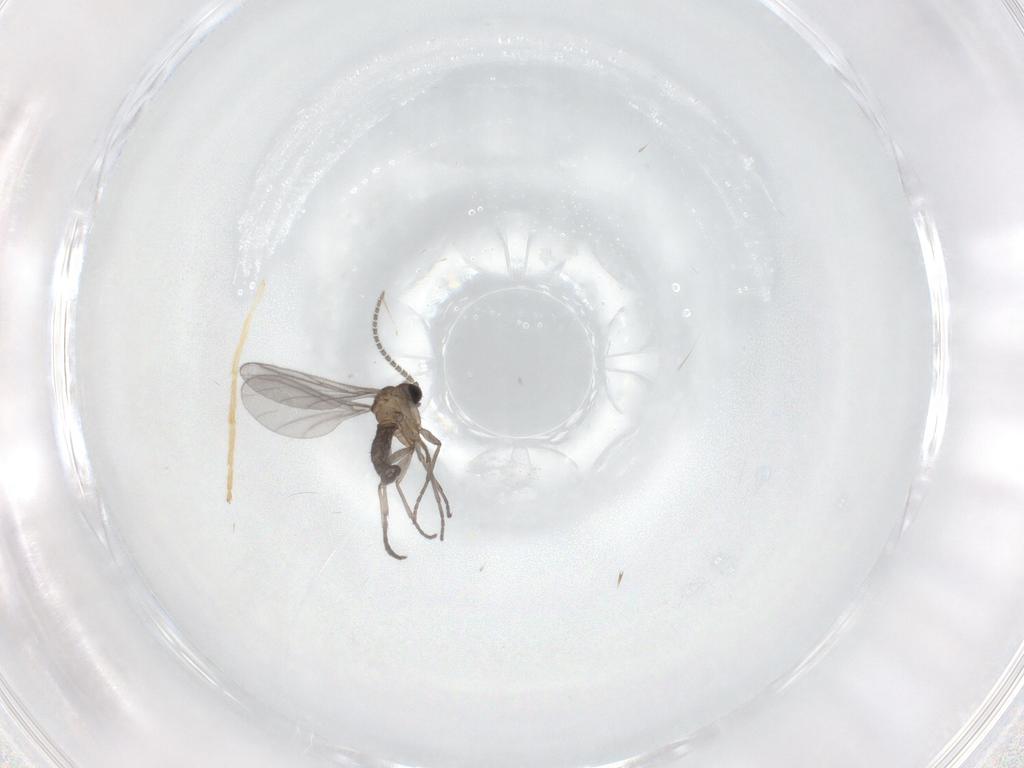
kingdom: Animalia
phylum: Arthropoda
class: Insecta
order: Diptera
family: Sciaridae
